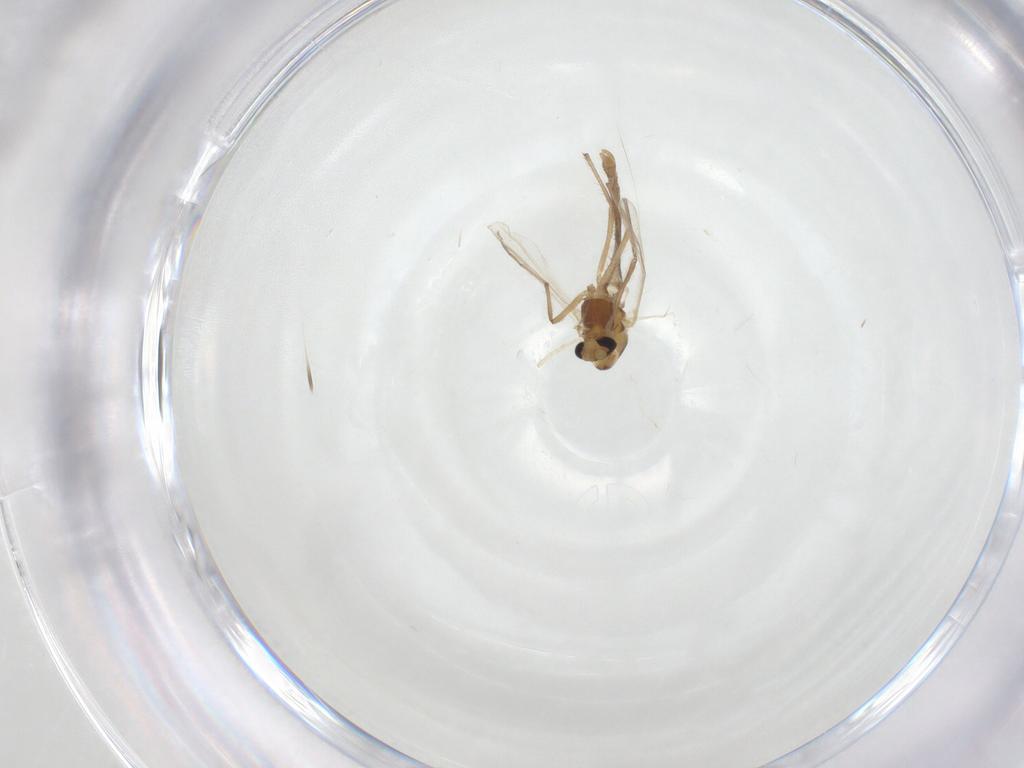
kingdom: Animalia
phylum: Arthropoda
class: Insecta
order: Diptera
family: Chironomidae
